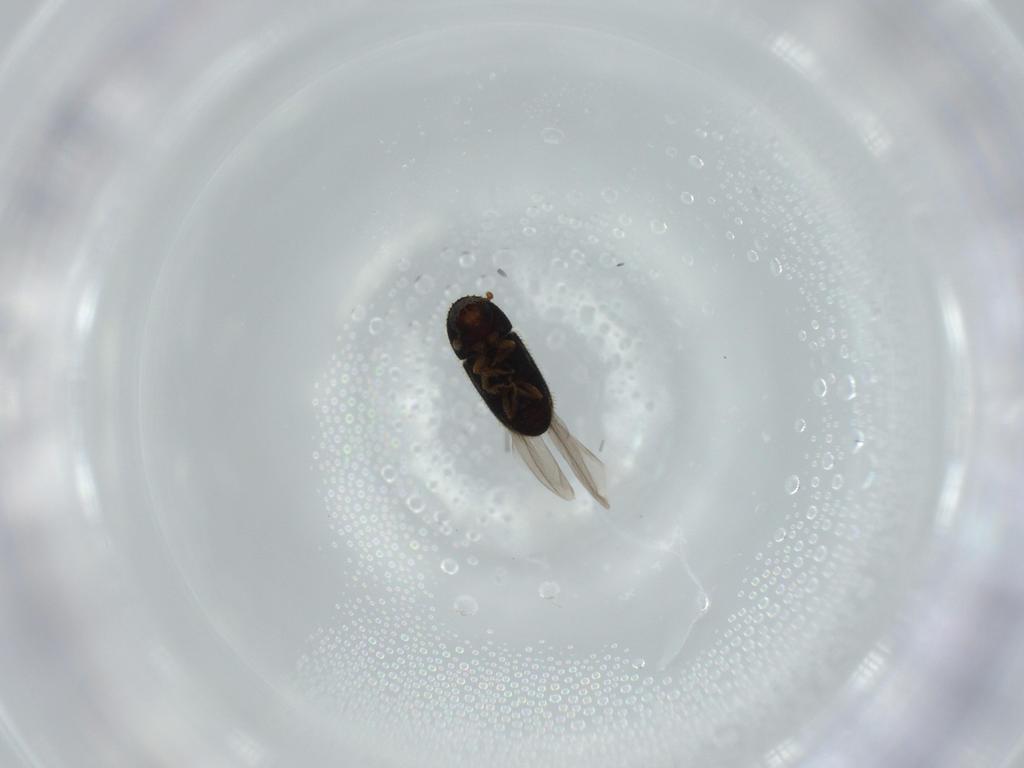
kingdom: Animalia
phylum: Arthropoda
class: Insecta
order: Coleoptera
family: Curculionidae
